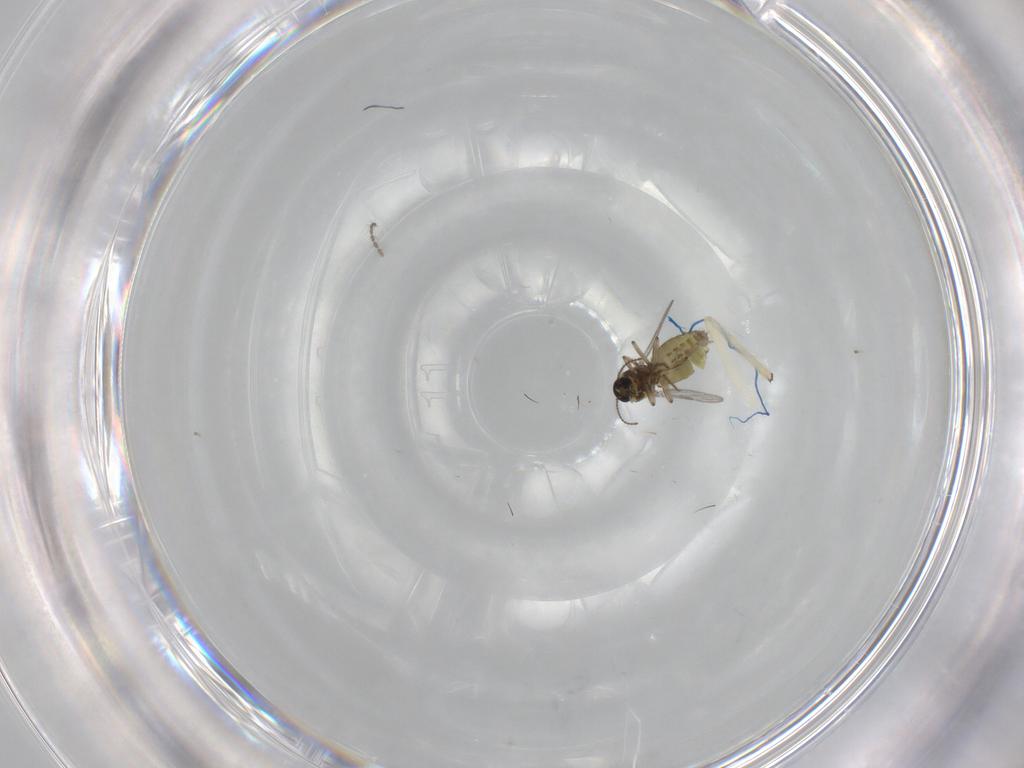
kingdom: Animalia
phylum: Arthropoda
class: Insecta
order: Diptera
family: Ceratopogonidae
